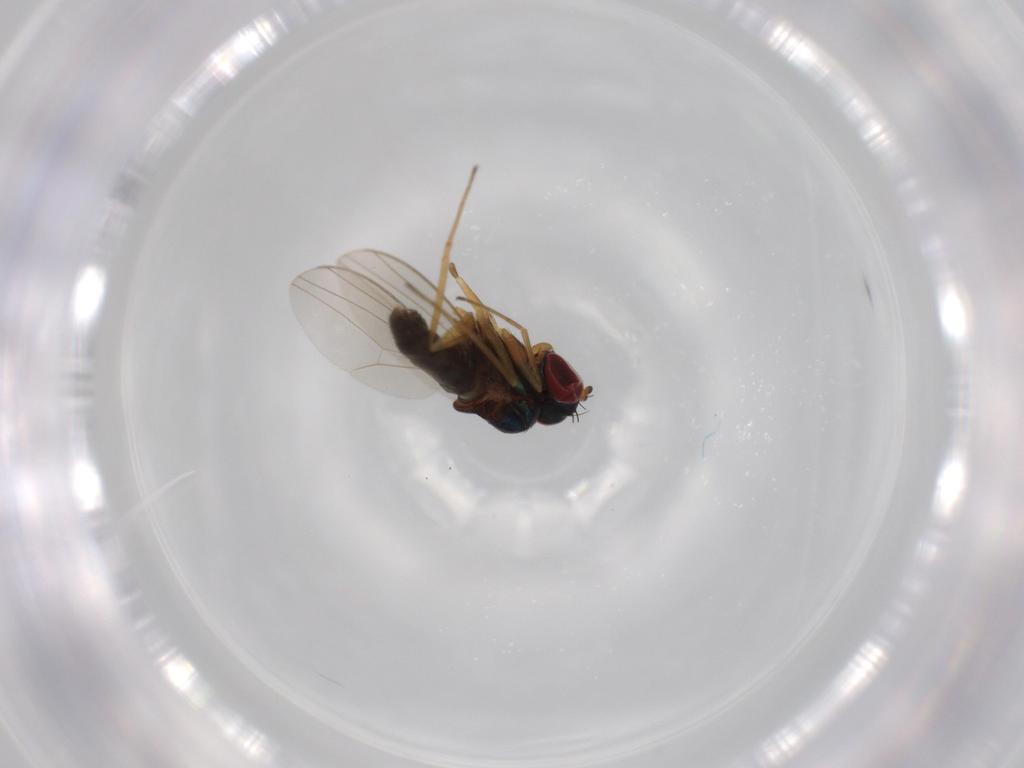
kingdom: Animalia
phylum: Arthropoda
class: Insecta
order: Diptera
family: Dolichopodidae
